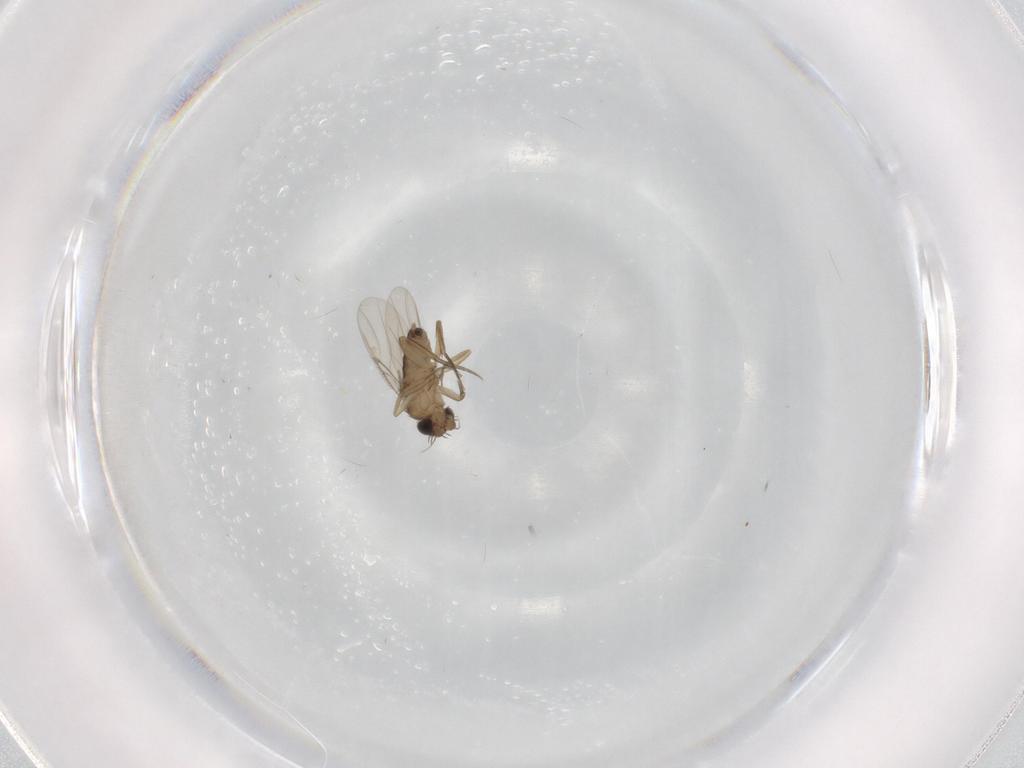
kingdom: Animalia
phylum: Arthropoda
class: Insecta
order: Diptera
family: Phoridae
